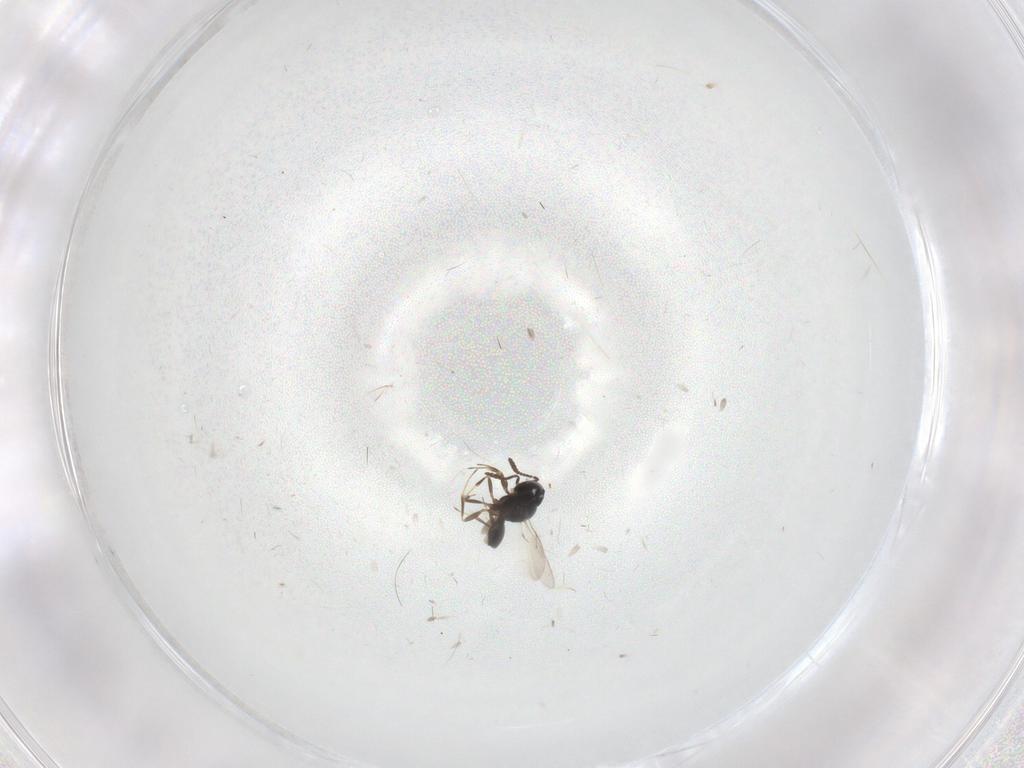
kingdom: Animalia
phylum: Arthropoda
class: Insecta
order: Hymenoptera
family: Scelionidae
